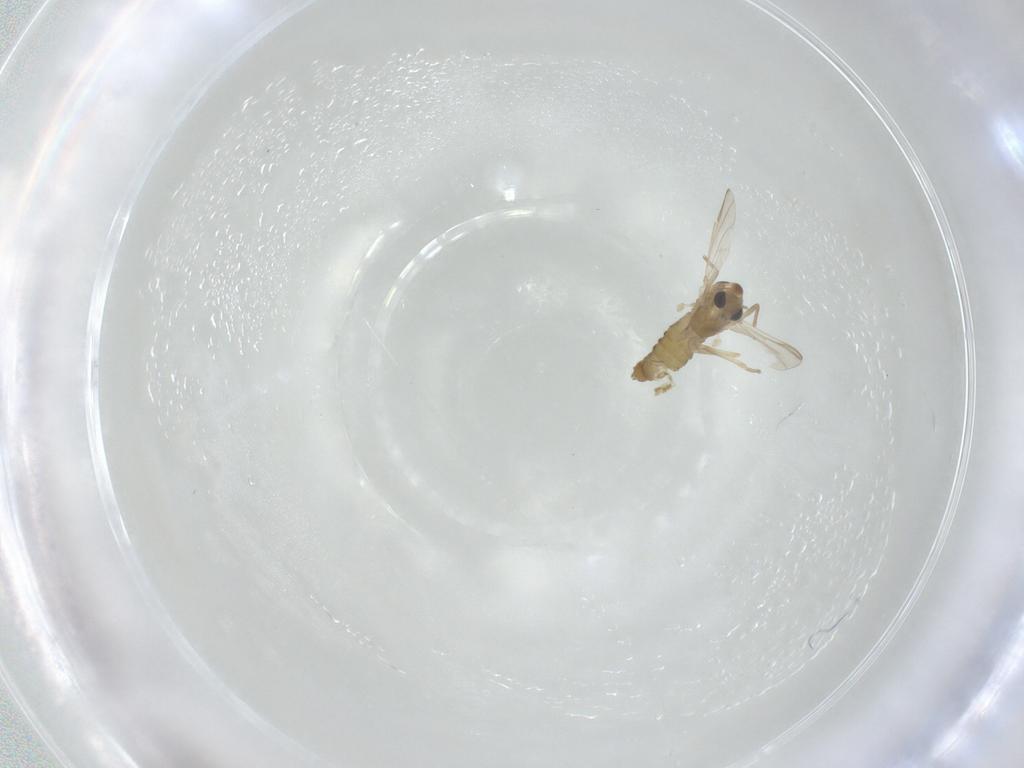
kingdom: Animalia
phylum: Arthropoda
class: Insecta
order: Diptera
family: Chironomidae
